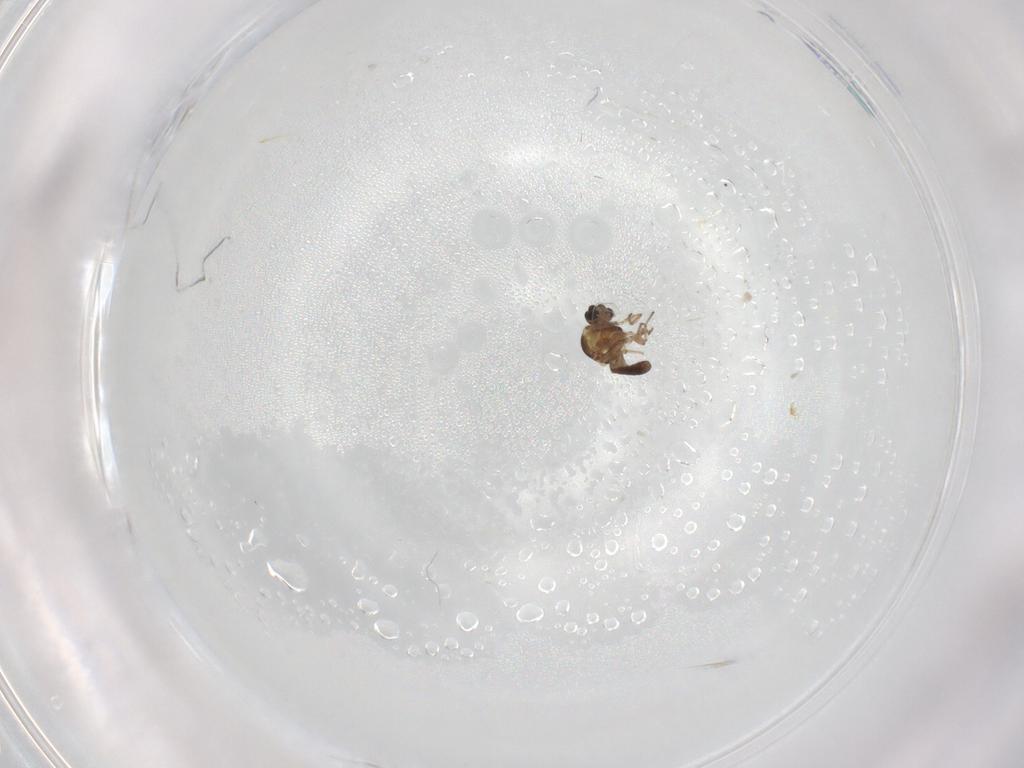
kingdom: Animalia
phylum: Arthropoda
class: Insecta
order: Diptera
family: Ceratopogonidae
